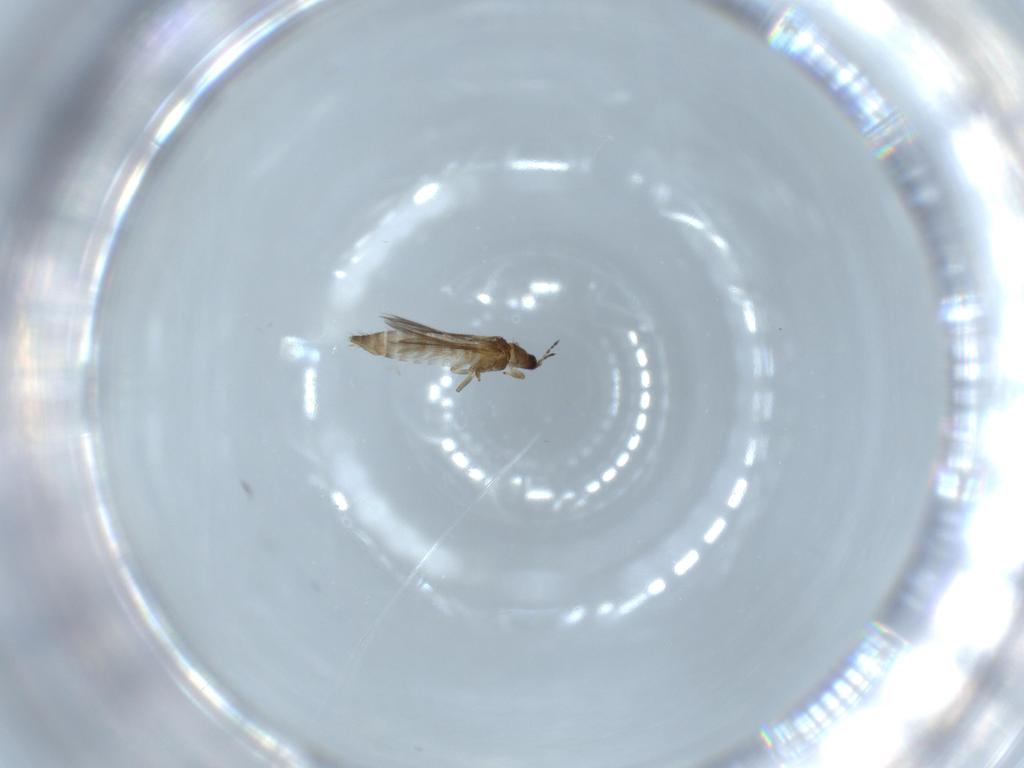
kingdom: Animalia
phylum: Arthropoda
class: Insecta
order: Thysanoptera
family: Thripidae
